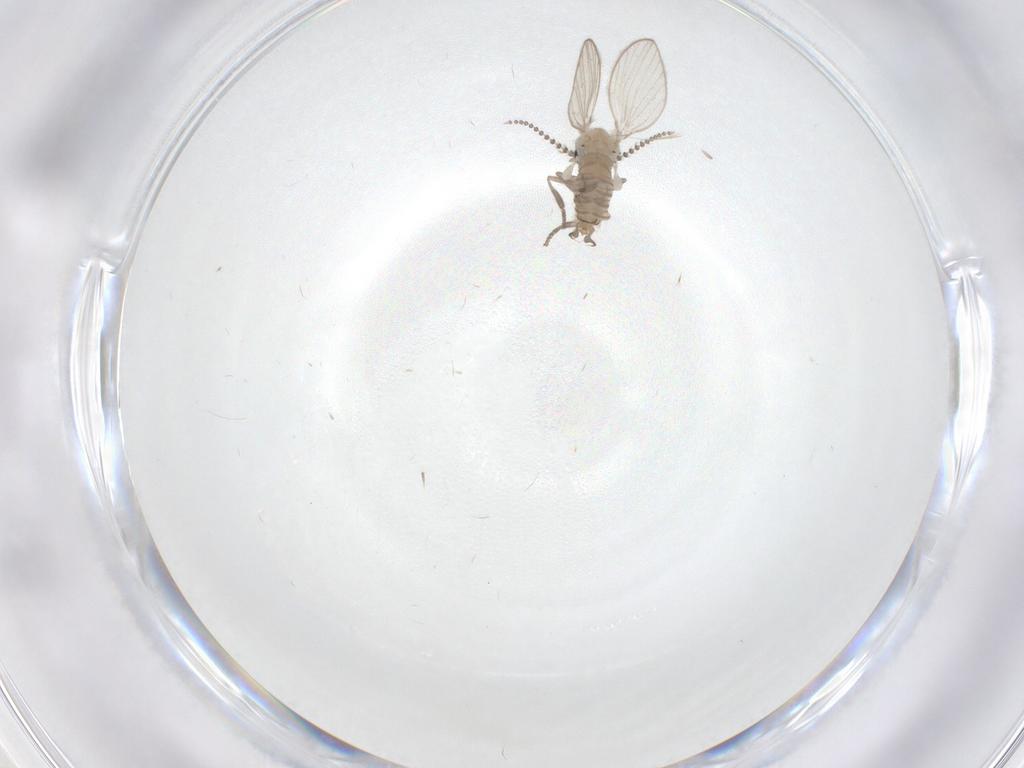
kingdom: Animalia
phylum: Arthropoda
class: Insecta
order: Diptera
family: Psychodidae
